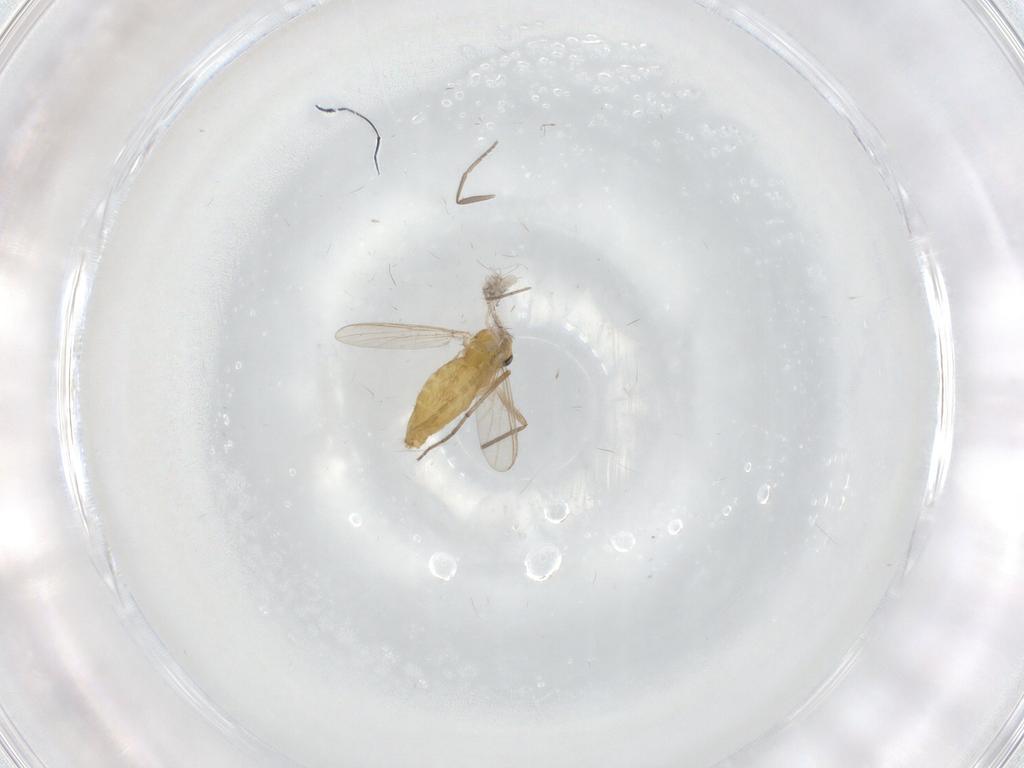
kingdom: Animalia
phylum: Arthropoda
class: Insecta
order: Diptera
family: Chironomidae
